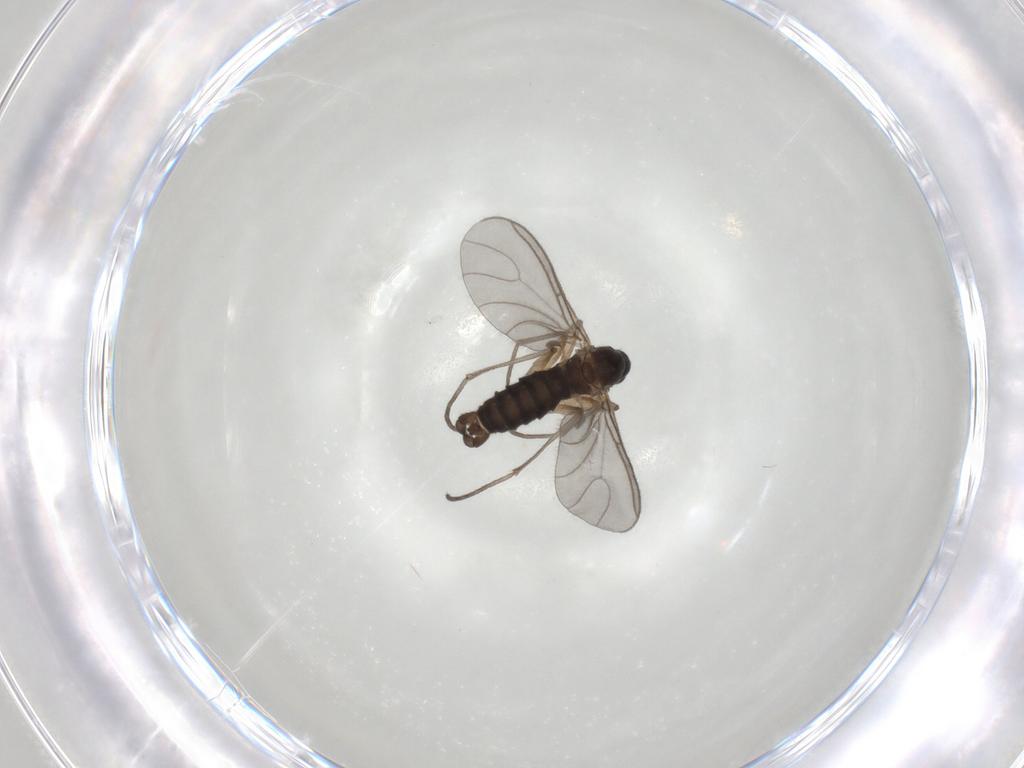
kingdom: Animalia
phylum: Arthropoda
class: Insecta
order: Diptera
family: Sciaridae
